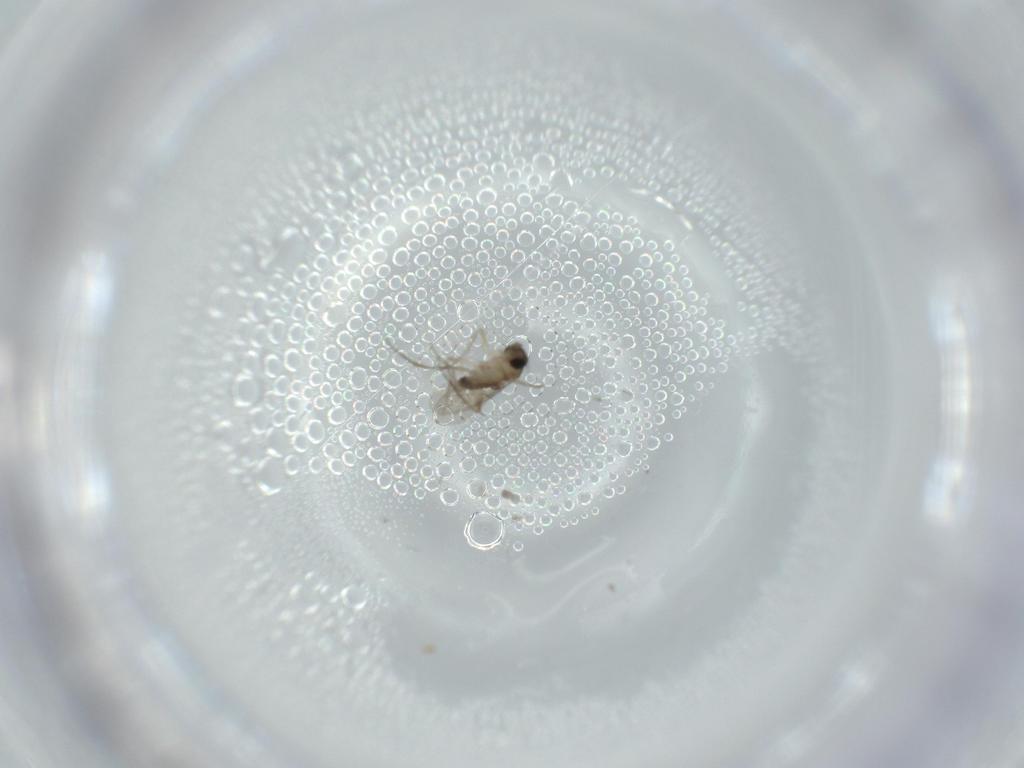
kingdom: Animalia
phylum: Arthropoda
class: Insecta
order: Diptera
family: Phoridae
